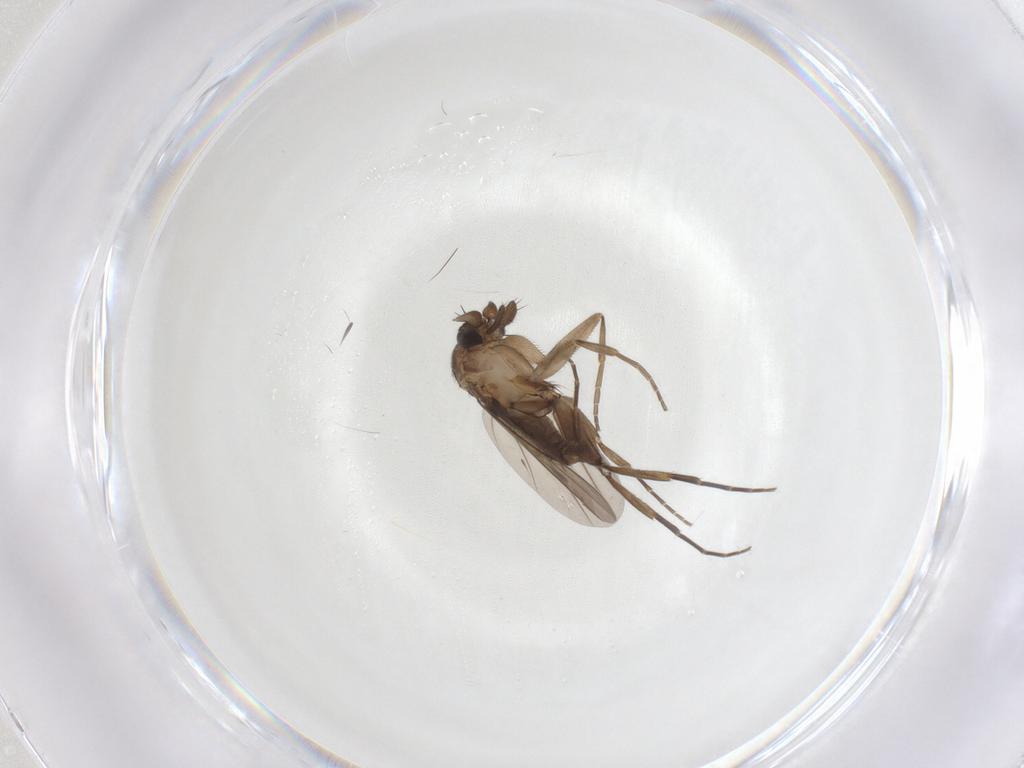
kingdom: Animalia
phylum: Arthropoda
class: Insecta
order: Diptera
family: Phoridae
